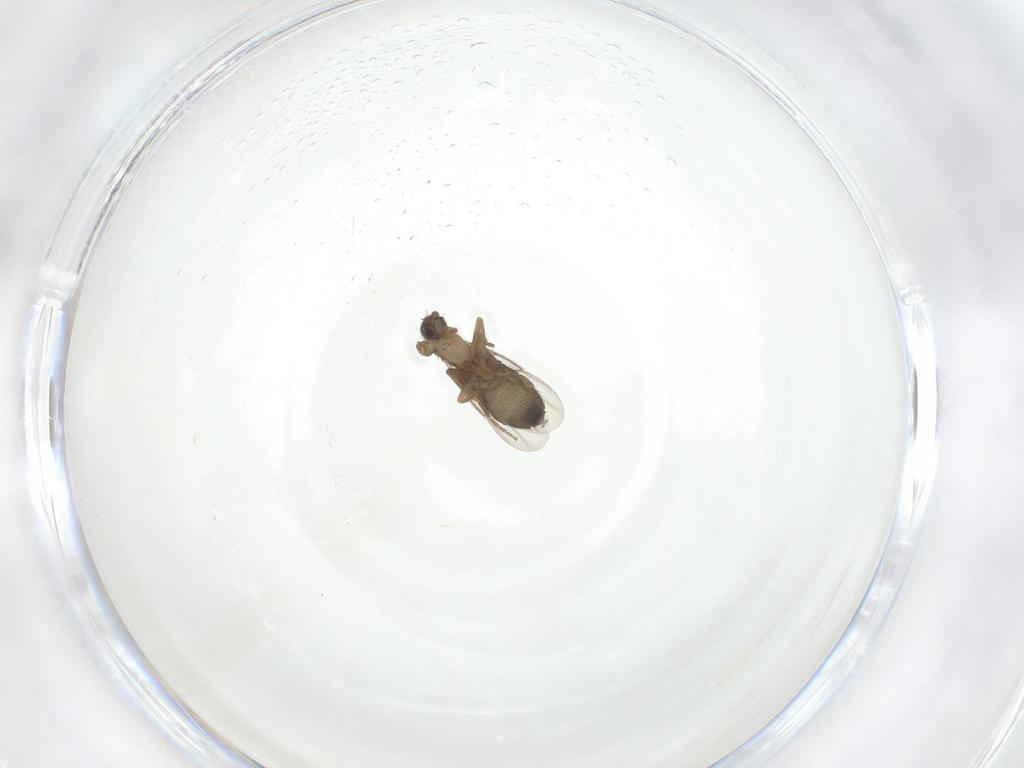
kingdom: Animalia
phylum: Arthropoda
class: Insecta
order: Diptera
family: Phoridae
